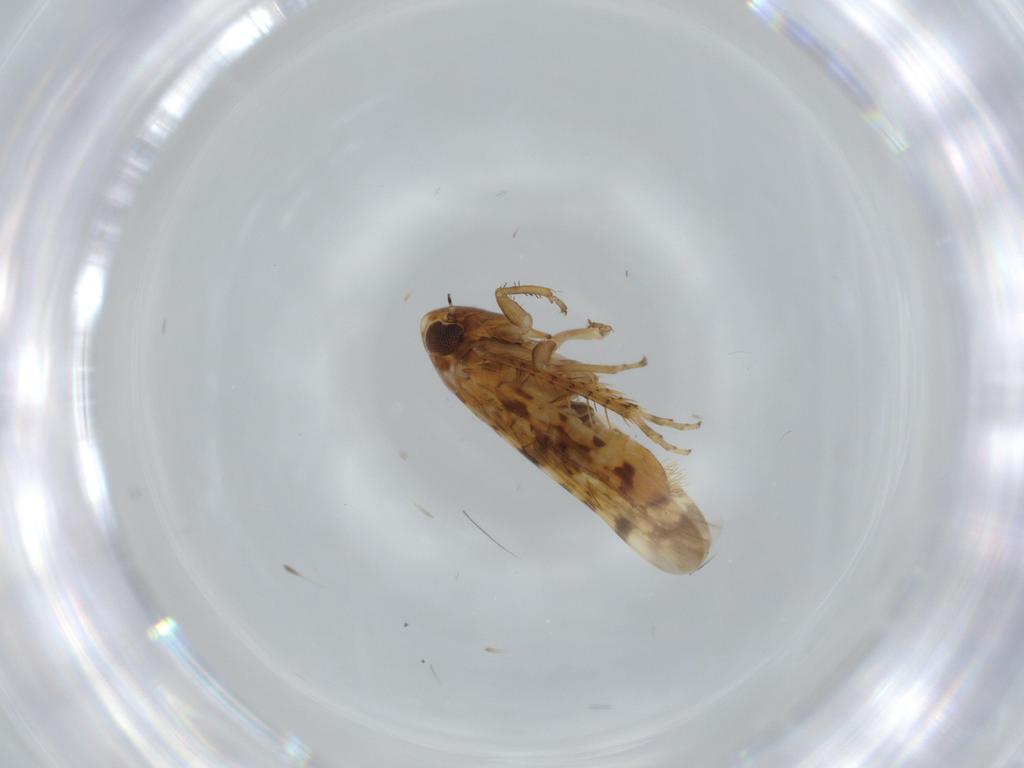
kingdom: Animalia
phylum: Arthropoda
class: Insecta
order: Hemiptera
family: Cicadellidae
